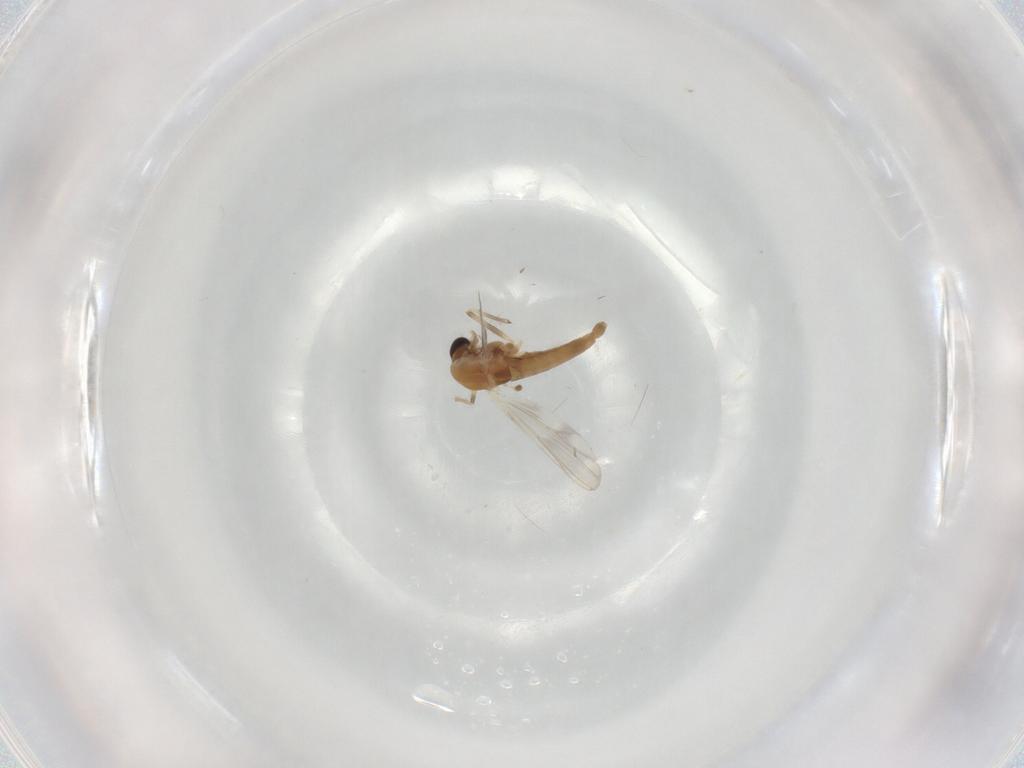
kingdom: Animalia
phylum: Arthropoda
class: Insecta
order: Diptera
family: Chironomidae
